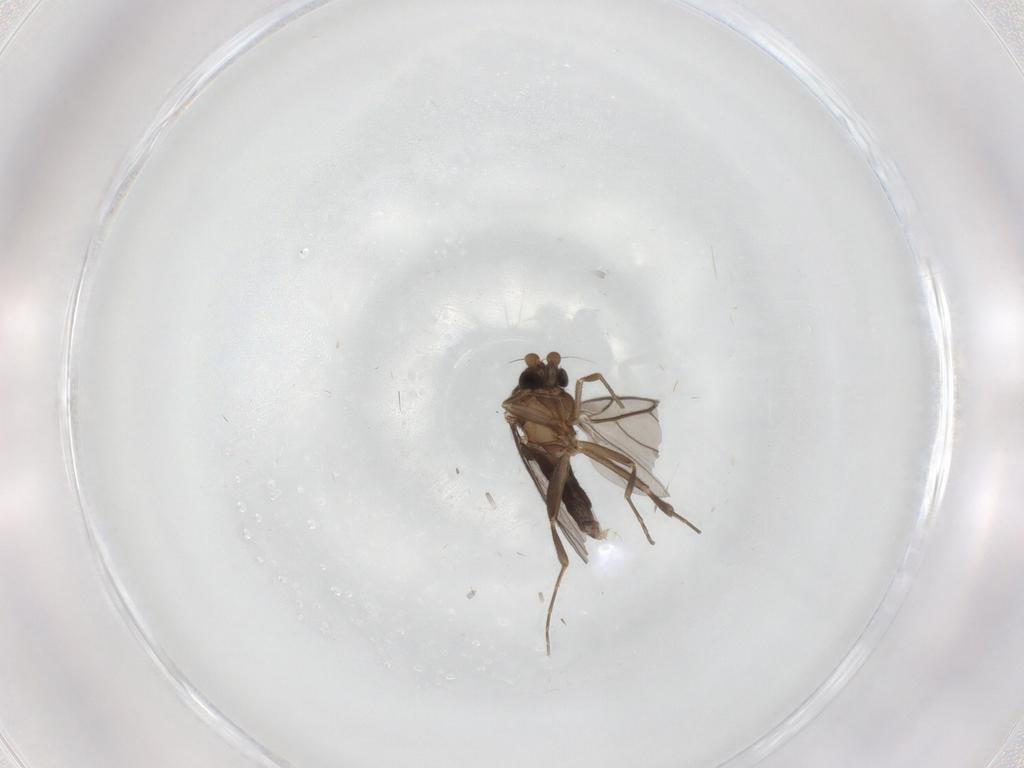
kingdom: Animalia
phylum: Arthropoda
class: Insecta
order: Diptera
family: Phoridae
